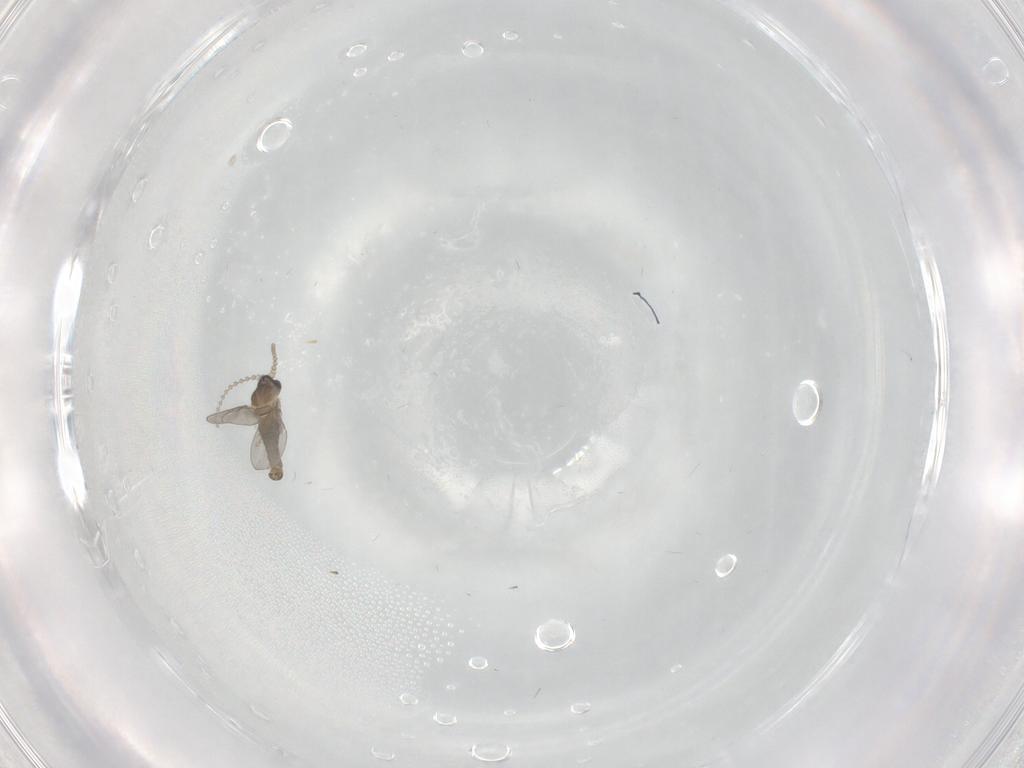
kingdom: Animalia
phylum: Arthropoda
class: Insecta
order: Diptera
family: Cecidomyiidae
